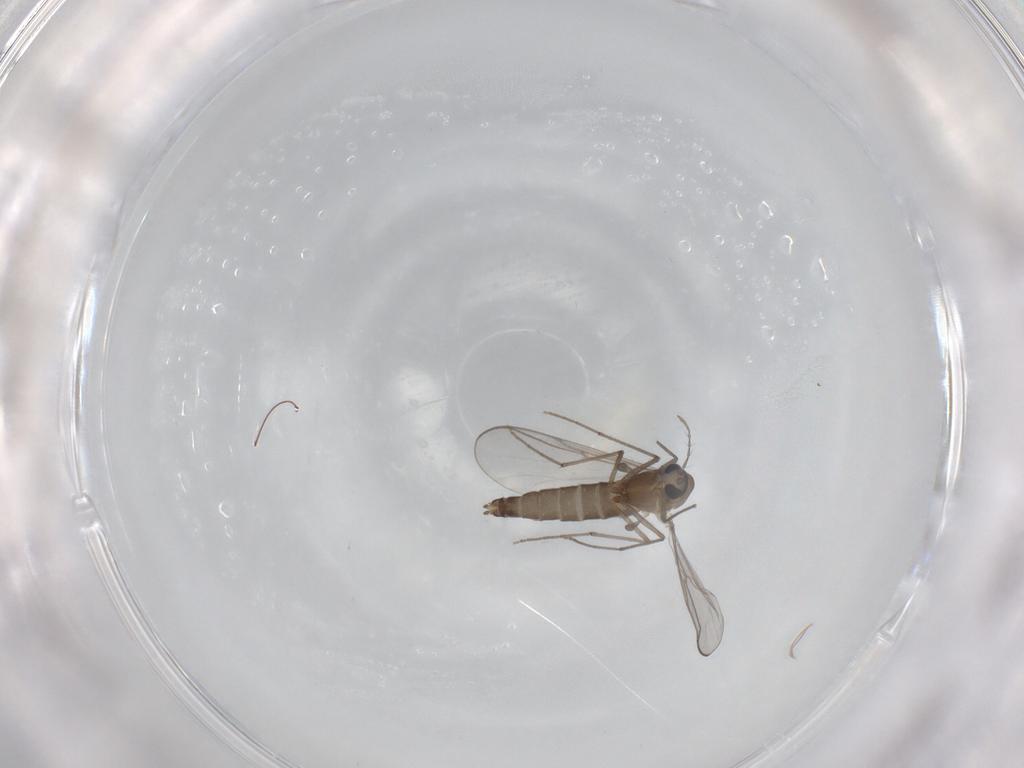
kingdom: Animalia
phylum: Arthropoda
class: Insecta
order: Diptera
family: Chironomidae
